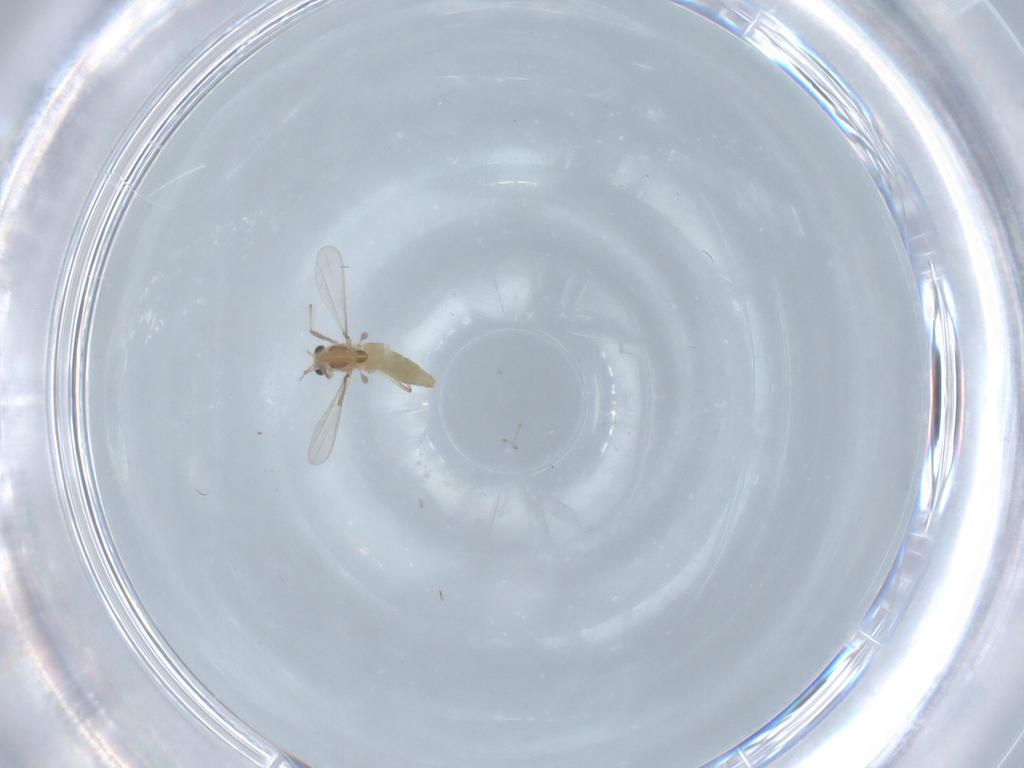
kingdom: Animalia
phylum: Arthropoda
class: Insecta
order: Diptera
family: Chironomidae
